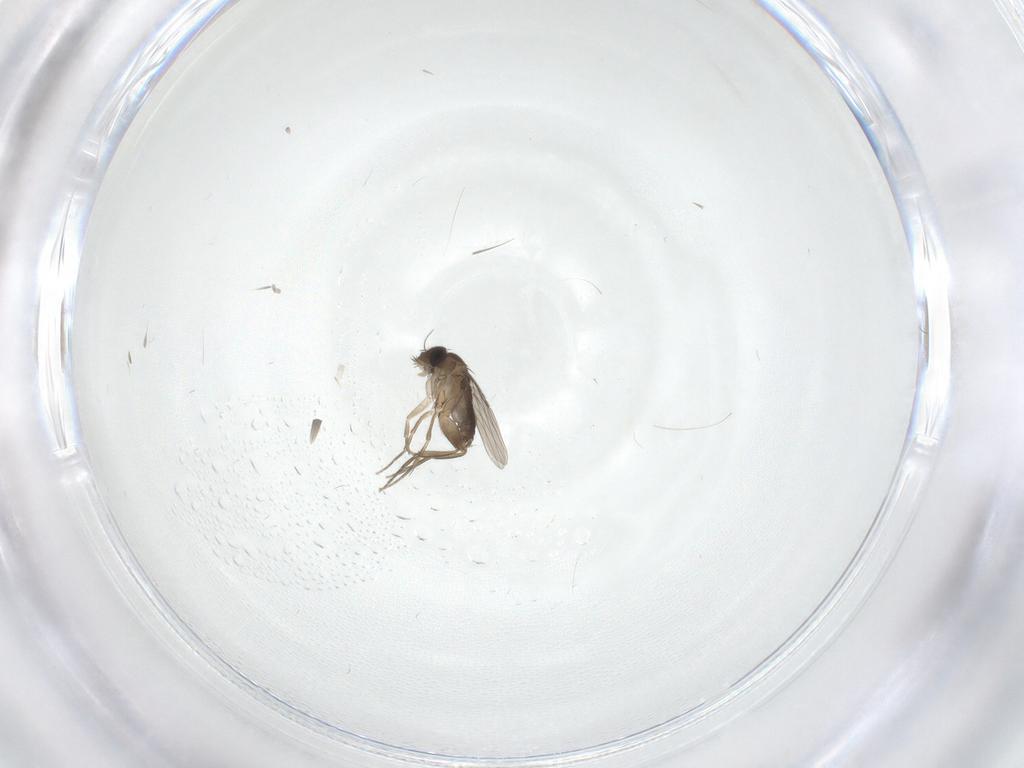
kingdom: Animalia
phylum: Arthropoda
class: Insecta
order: Diptera
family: Phoridae
